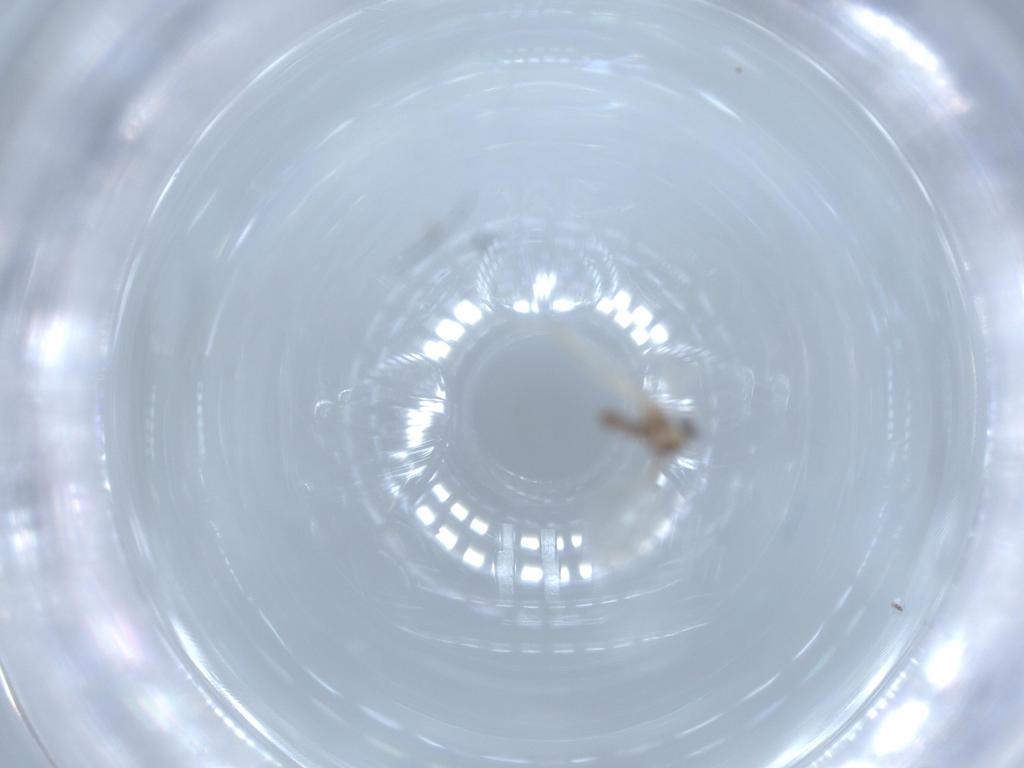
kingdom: Animalia
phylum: Arthropoda
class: Insecta
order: Diptera
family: Cecidomyiidae
